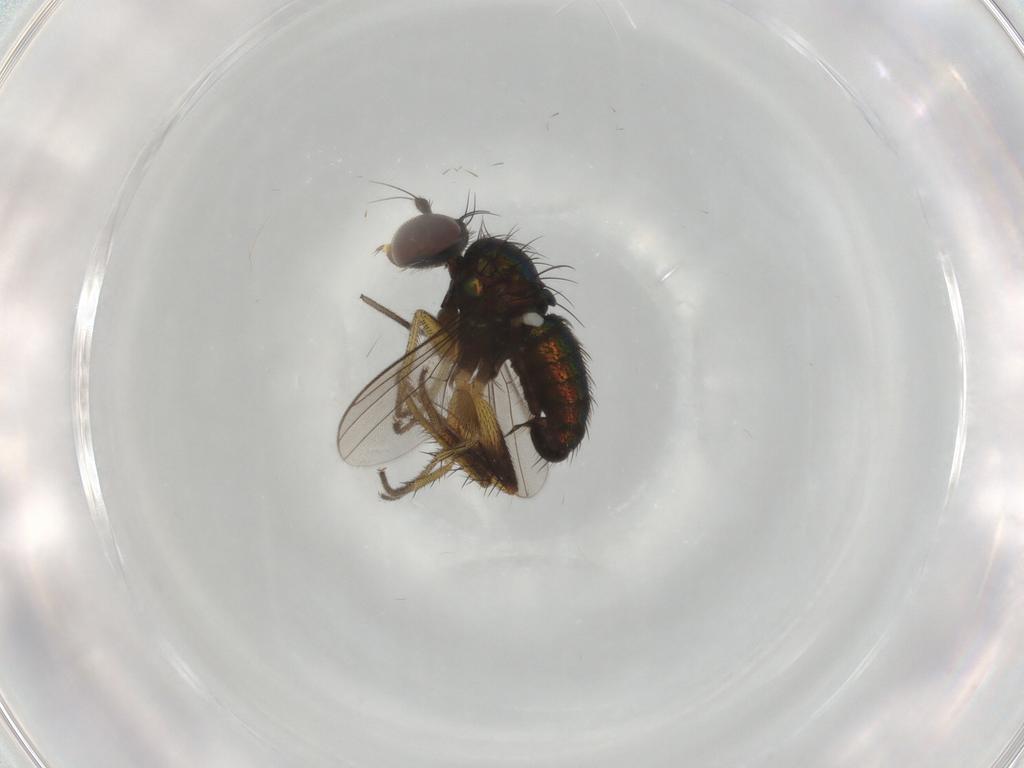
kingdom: Animalia
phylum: Arthropoda
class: Insecta
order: Diptera
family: Dolichopodidae
